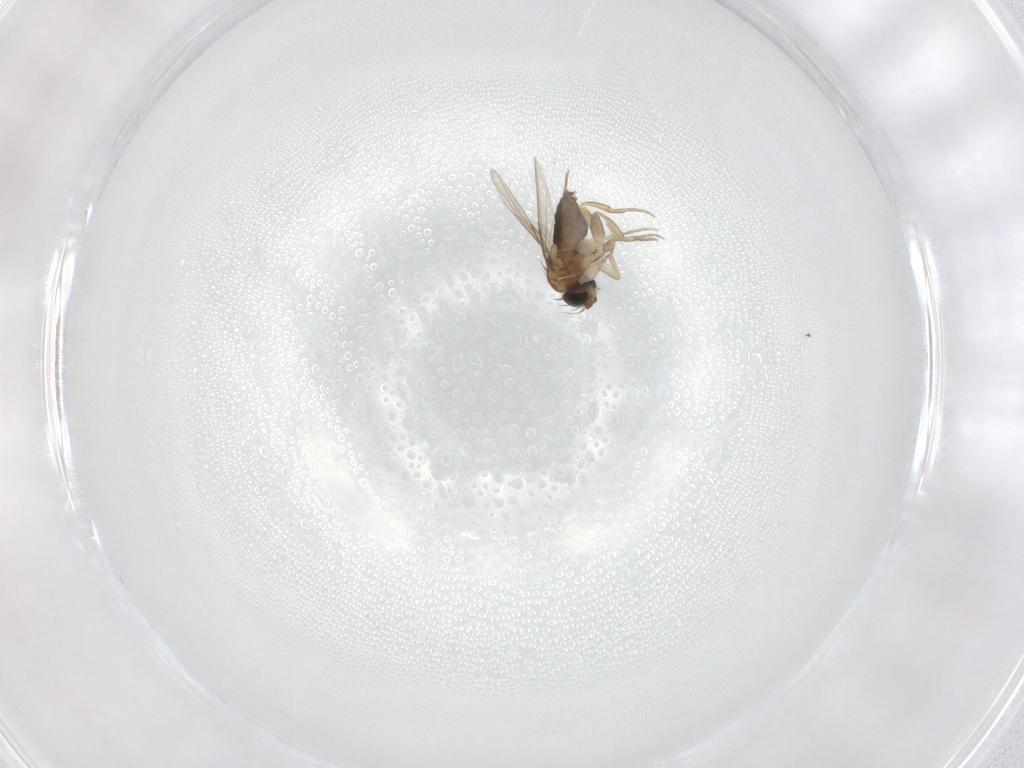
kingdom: Animalia
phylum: Arthropoda
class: Insecta
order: Diptera
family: Phoridae
